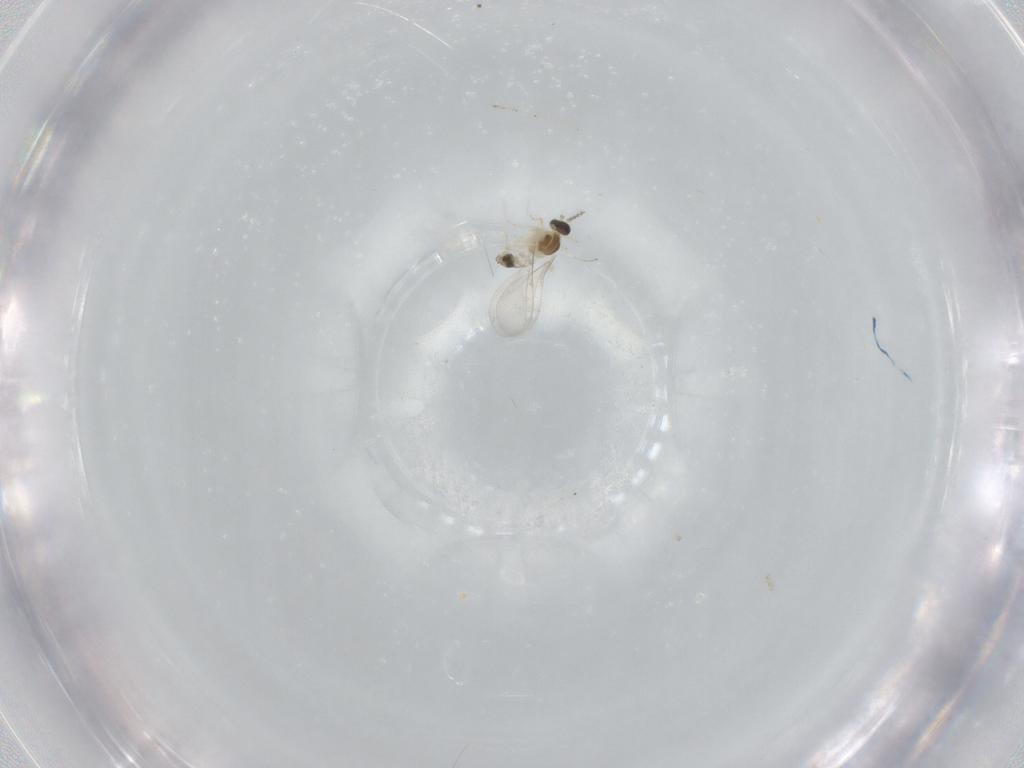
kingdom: Animalia
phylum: Arthropoda
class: Insecta
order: Diptera
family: Cecidomyiidae
